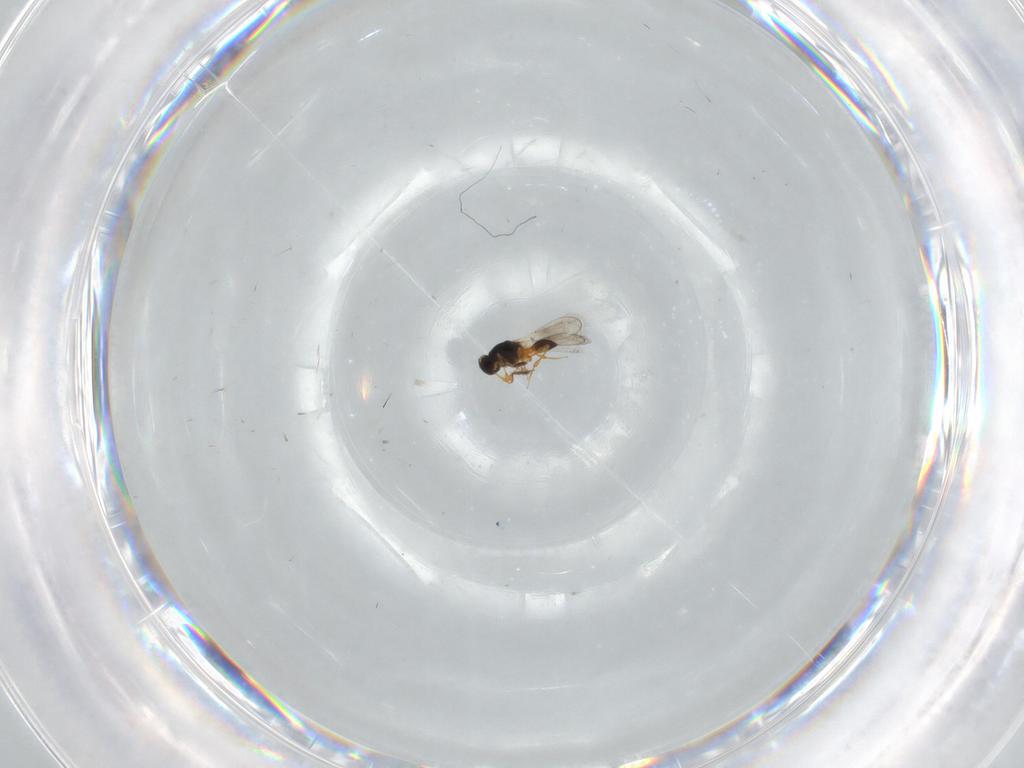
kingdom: Animalia
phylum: Arthropoda
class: Insecta
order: Hymenoptera
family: Platygastridae
